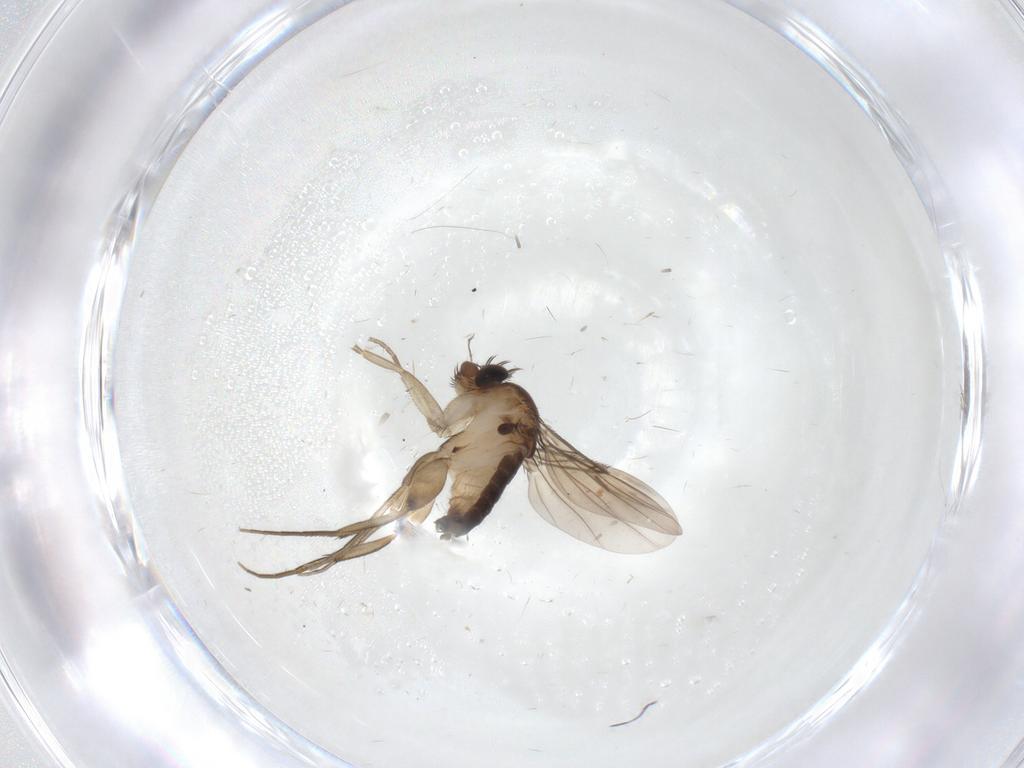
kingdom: Animalia
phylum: Arthropoda
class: Insecta
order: Diptera
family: Phoridae
